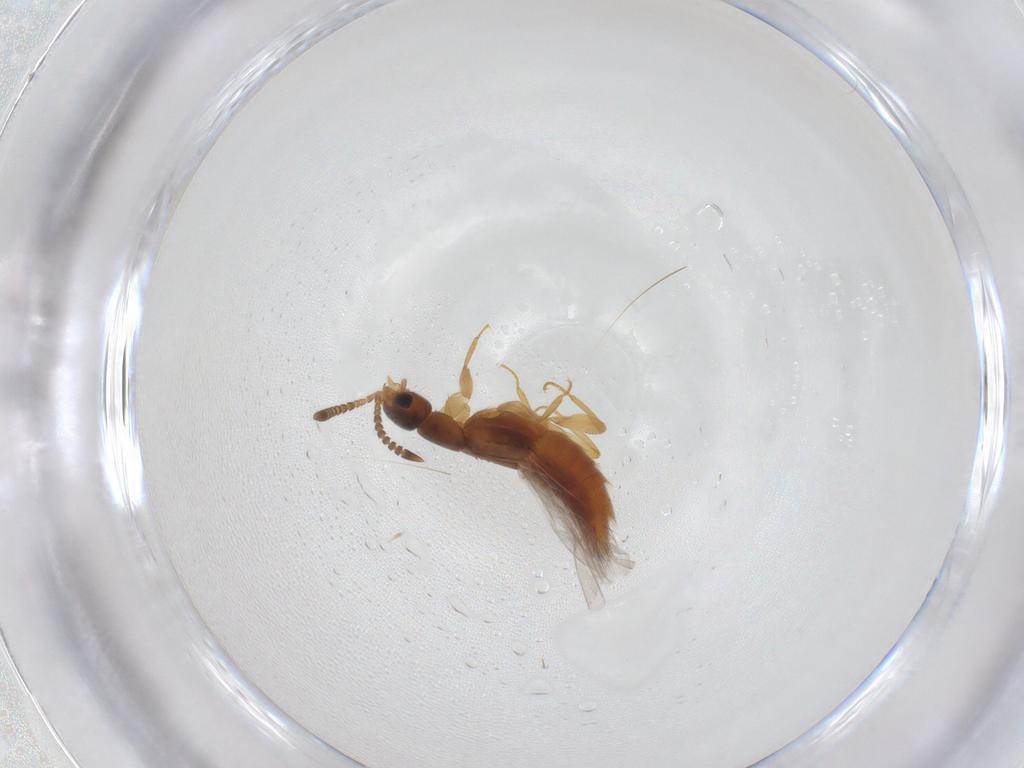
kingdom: Animalia
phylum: Arthropoda
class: Insecta
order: Coleoptera
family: Staphylinidae
